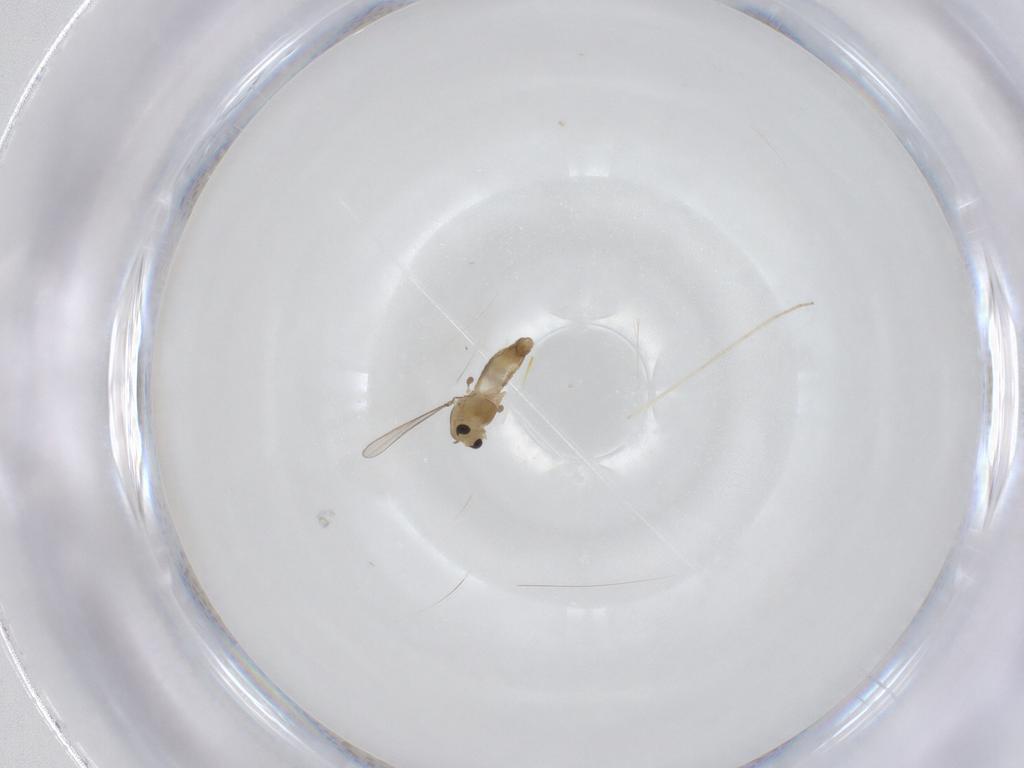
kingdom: Animalia
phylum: Arthropoda
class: Insecta
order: Diptera
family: Chironomidae
